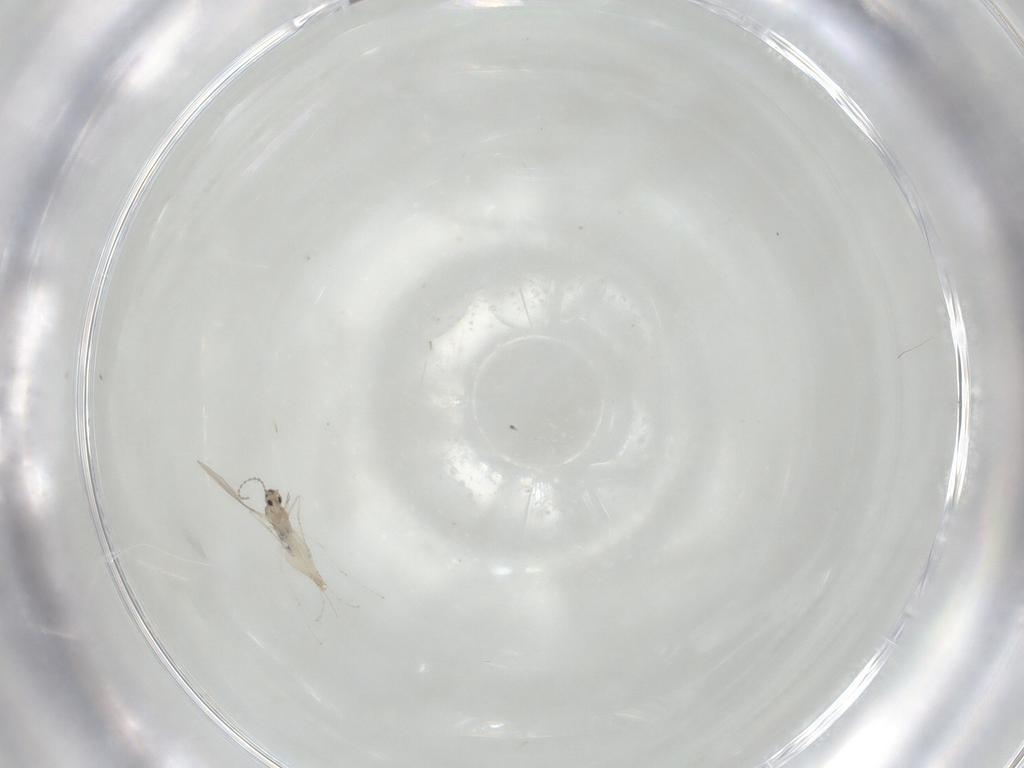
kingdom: Animalia
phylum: Arthropoda
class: Insecta
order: Diptera
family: Cecidomyiidae
